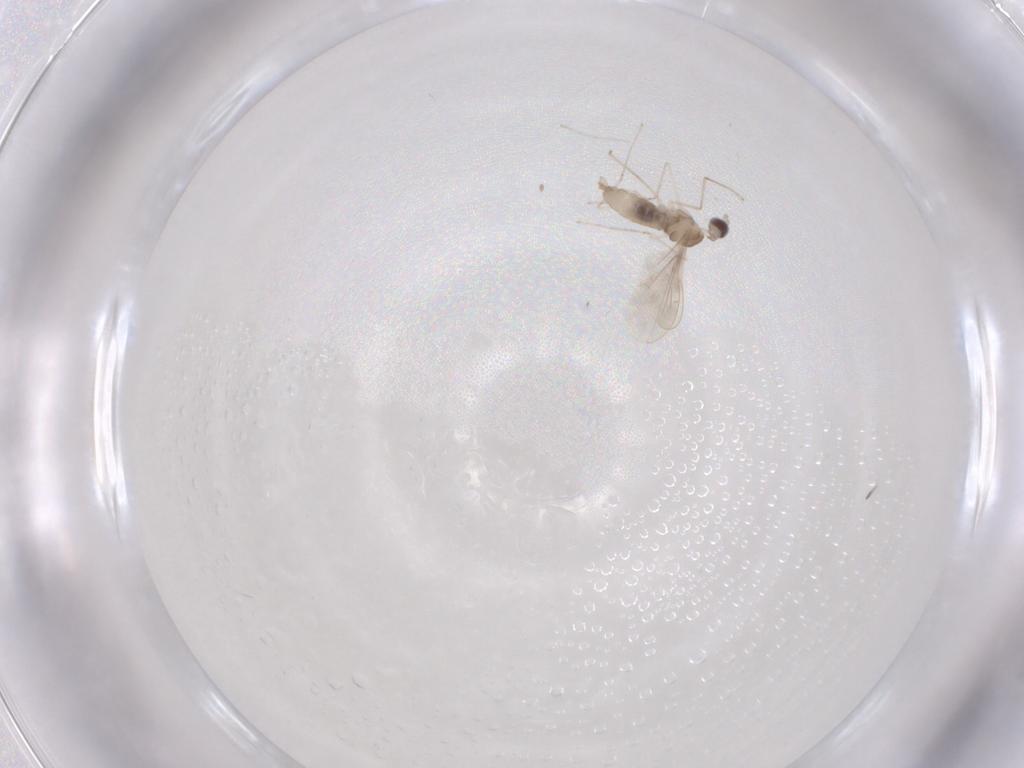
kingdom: Animalia
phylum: Arthropoda
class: Insecta
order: Diptera
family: Cecidomyiidae
